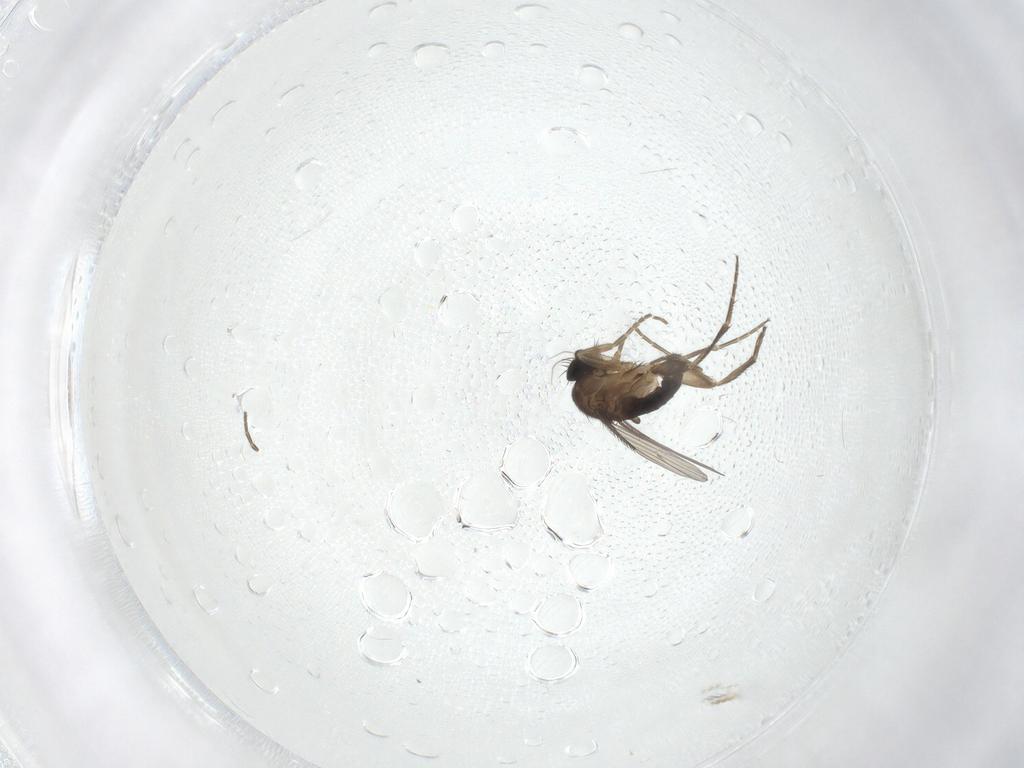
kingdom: Animalia
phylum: Arthropoda
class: Insecta
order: Diptera
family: Phoridae
